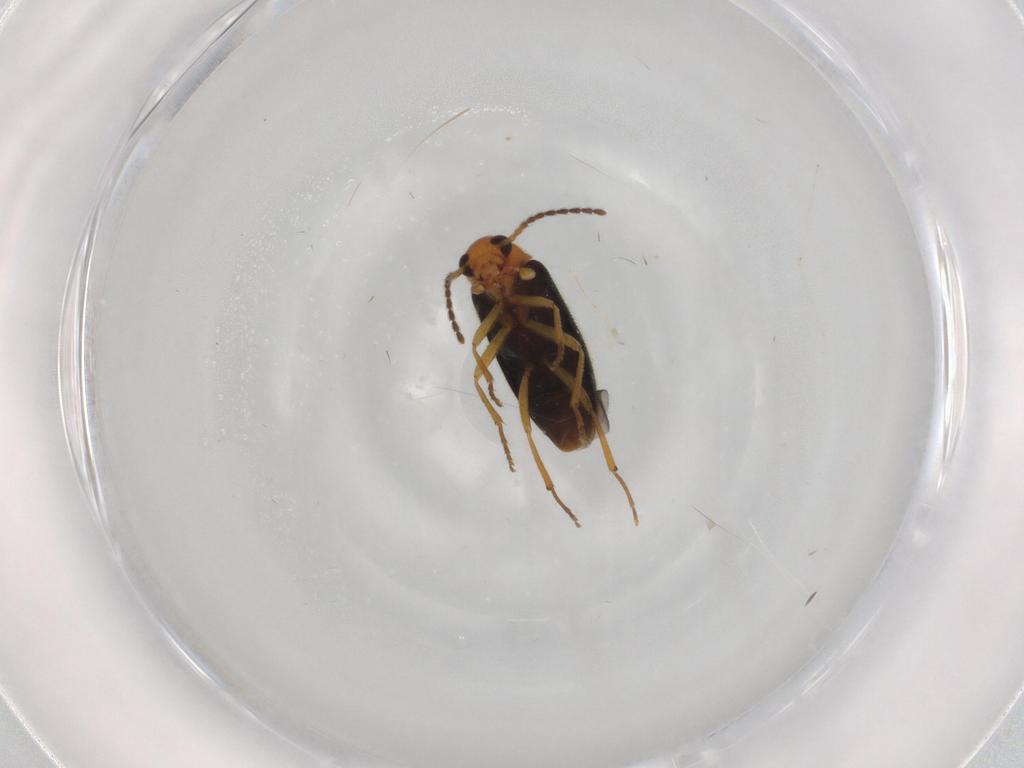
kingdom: Animalia
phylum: Arthropoda
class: Insecta
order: Coleoptera
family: Melandryidae
